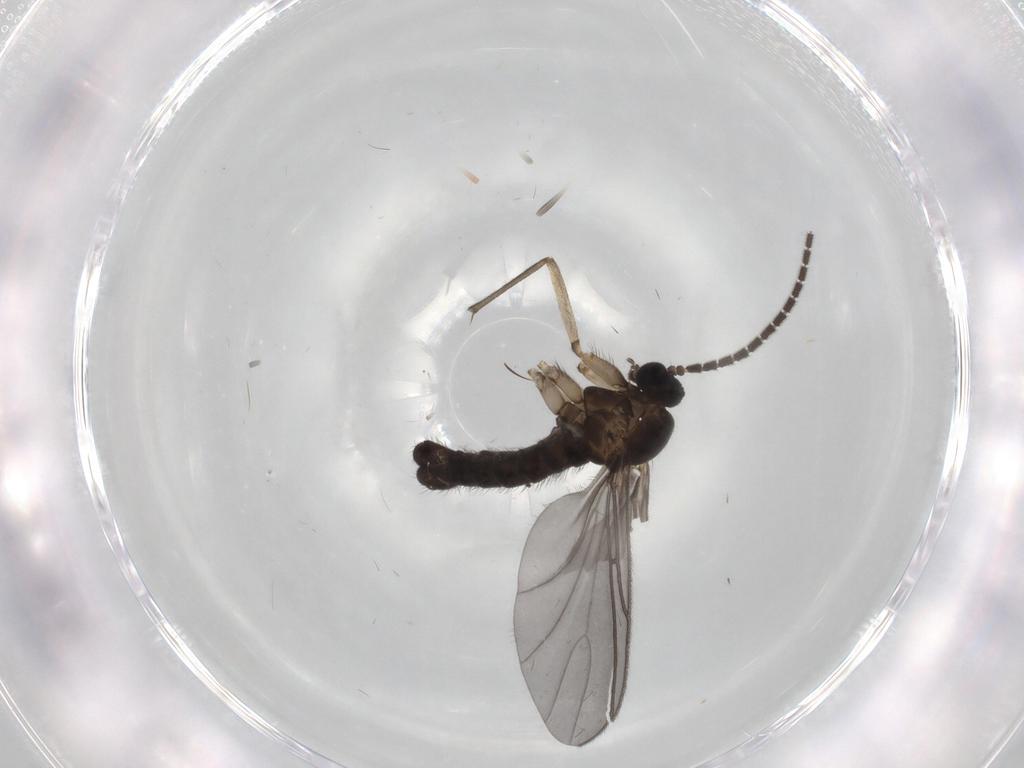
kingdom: Animalia
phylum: Arthropoda
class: Insecta
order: Diptera
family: Sciaridae
